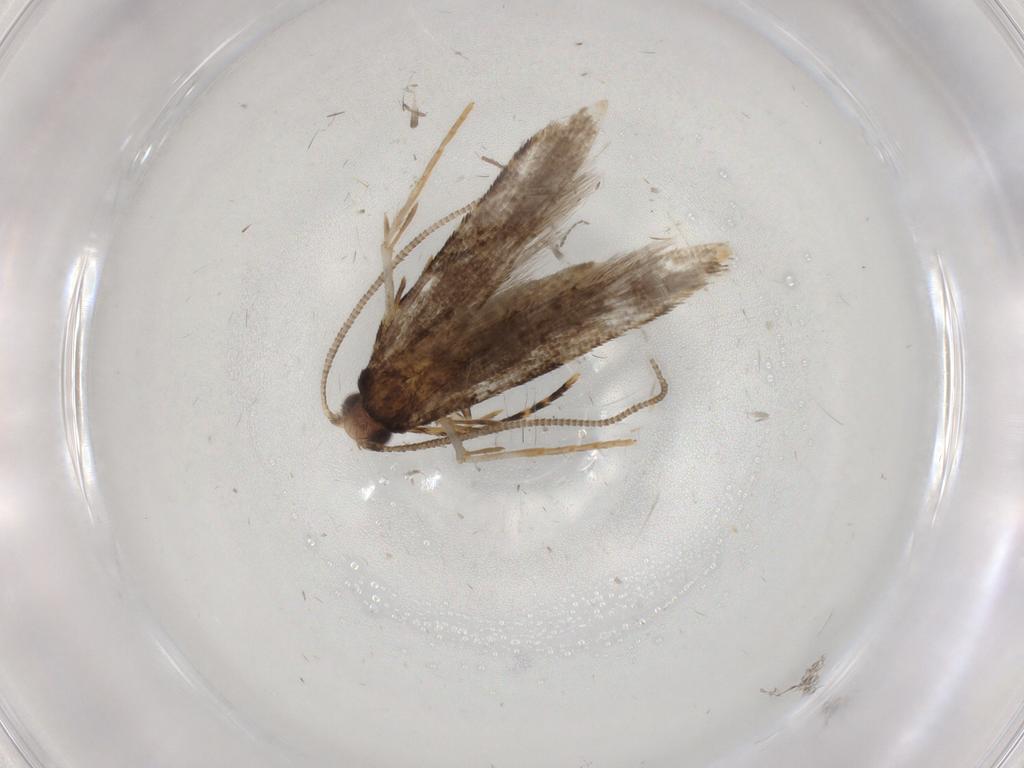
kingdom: Animalia
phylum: Arthropoda
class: Insecta
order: Lepidoptera
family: Tineidae
